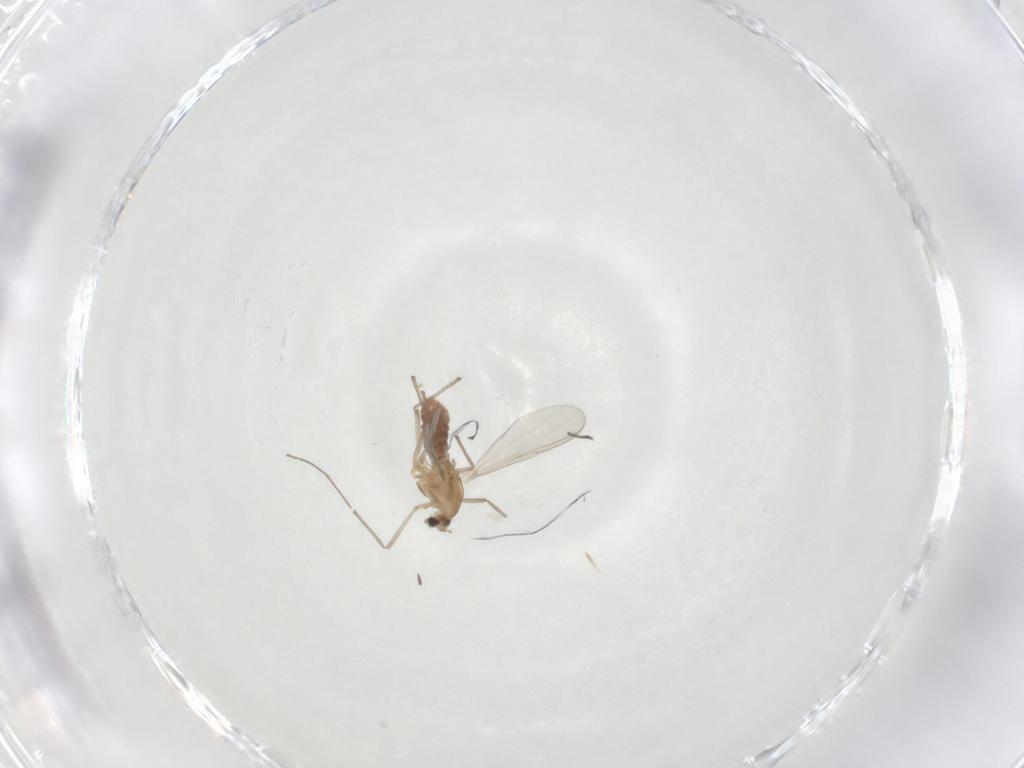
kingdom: Animalia
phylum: Arthropoda
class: Insecta
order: Diptera
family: Chironomidae
